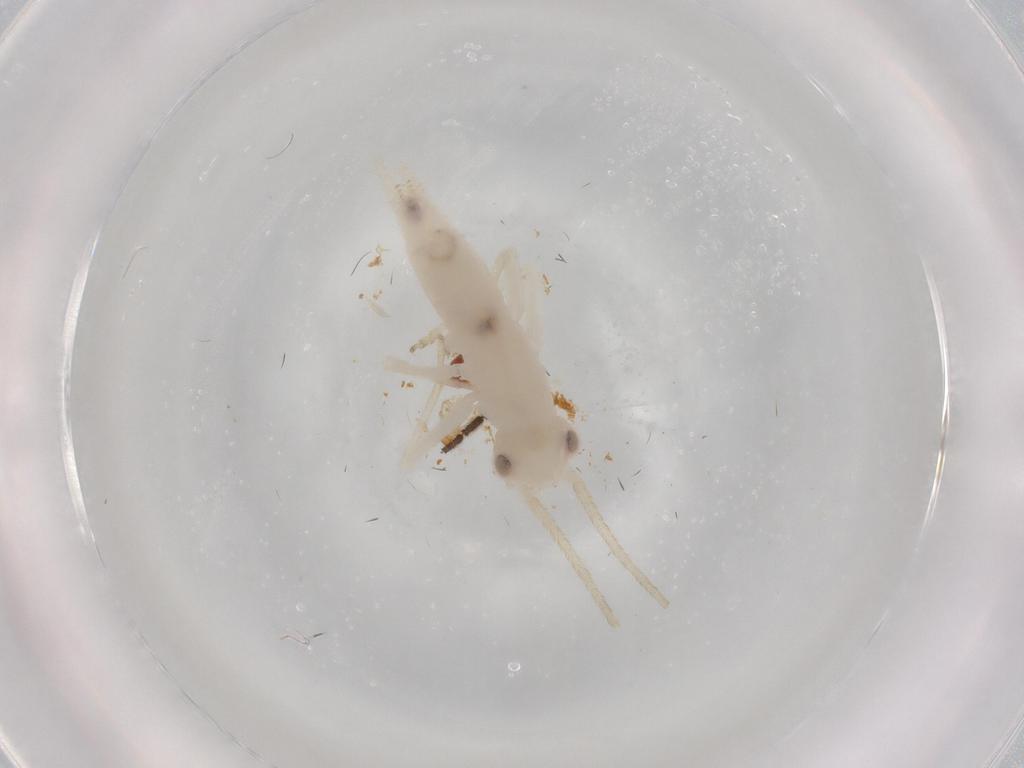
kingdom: Animalia
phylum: Arthropoda
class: Insecta
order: Orthoptera
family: Trigonidiidae
